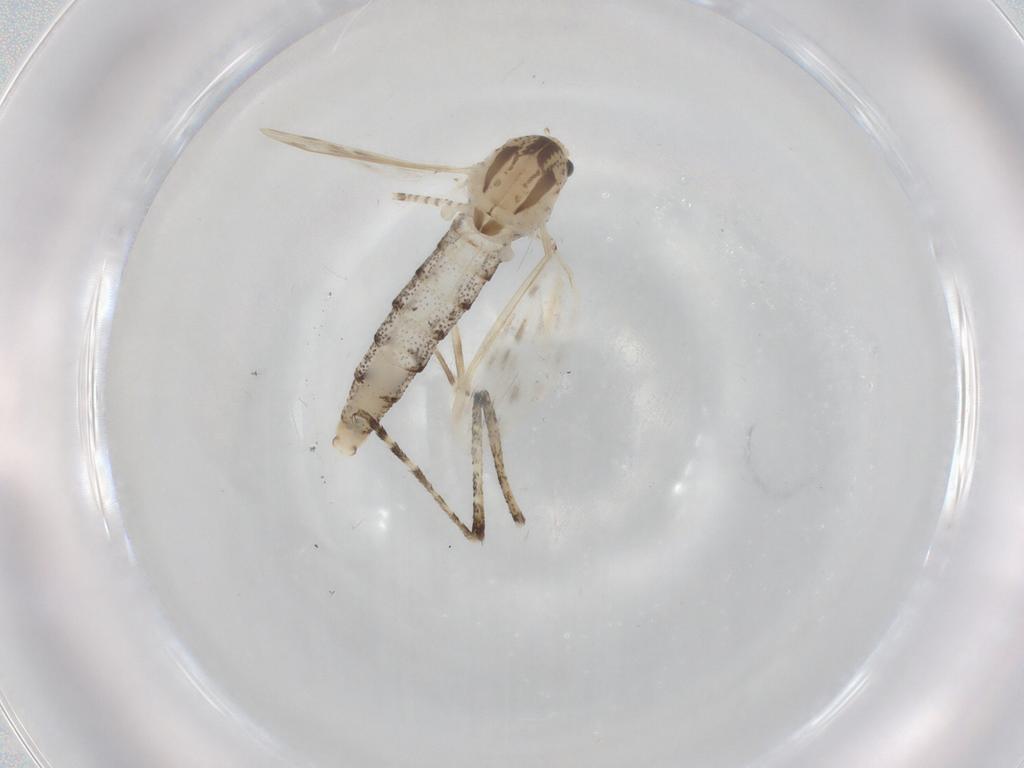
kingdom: Animalia
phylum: Arthropoda
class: Insecta
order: Diptera
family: Chaoboridae
